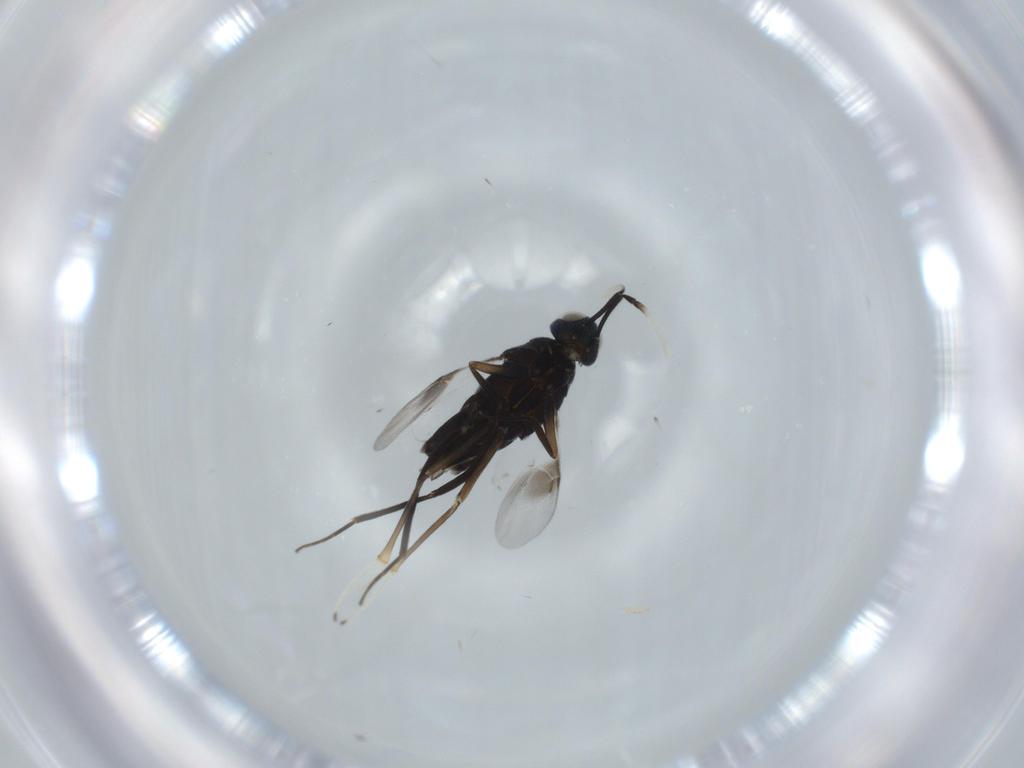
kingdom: Animalia
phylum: Arthropoda
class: Insecta
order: Hymenoptera
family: Encyrtidae
